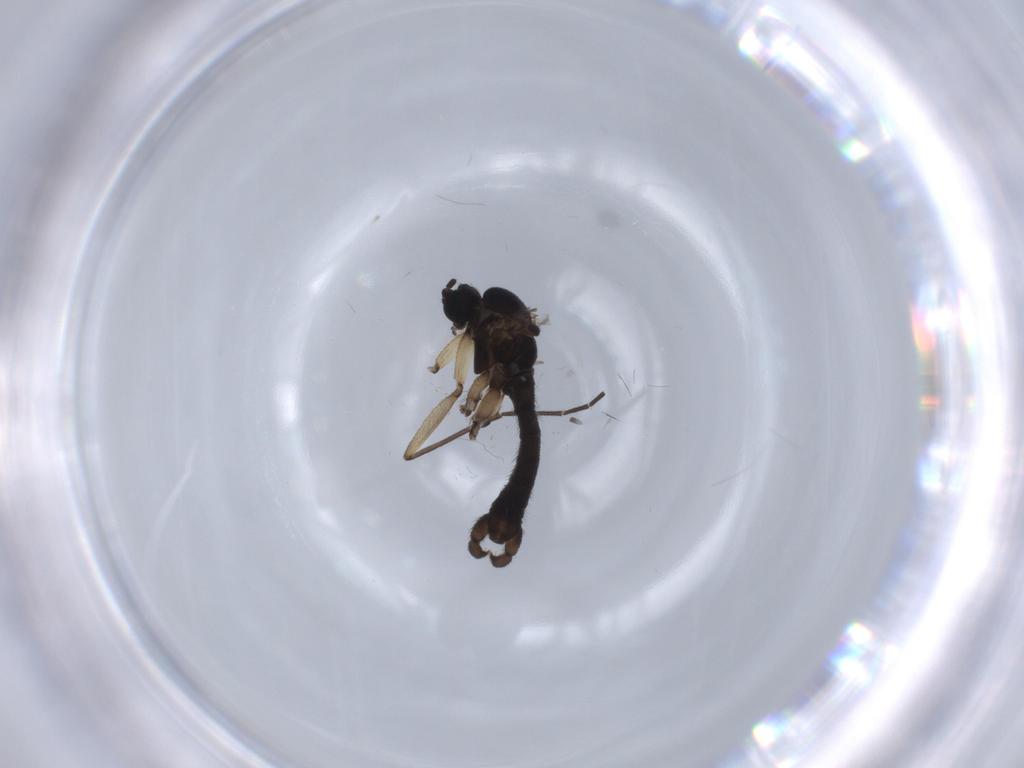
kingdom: Animalia
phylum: Arthropoda
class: Insecta
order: Diptera
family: Sciaridae
